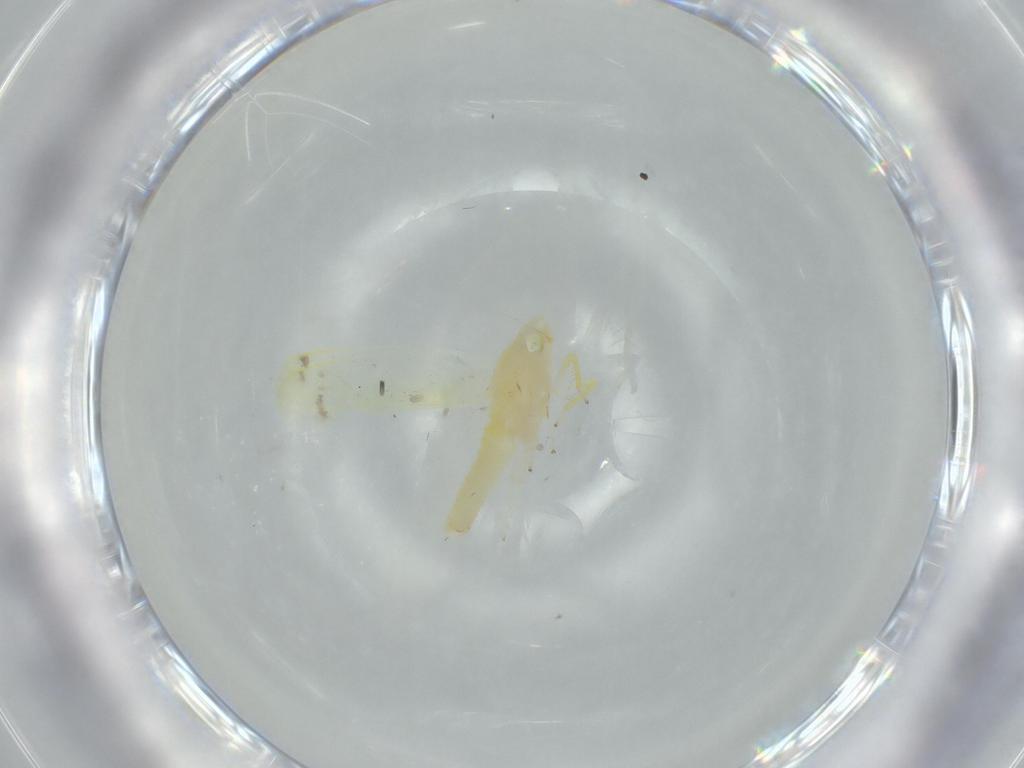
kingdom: Animalia
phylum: Arthropoda
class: Insecta
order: Hemiptera
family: Cicadellidae
